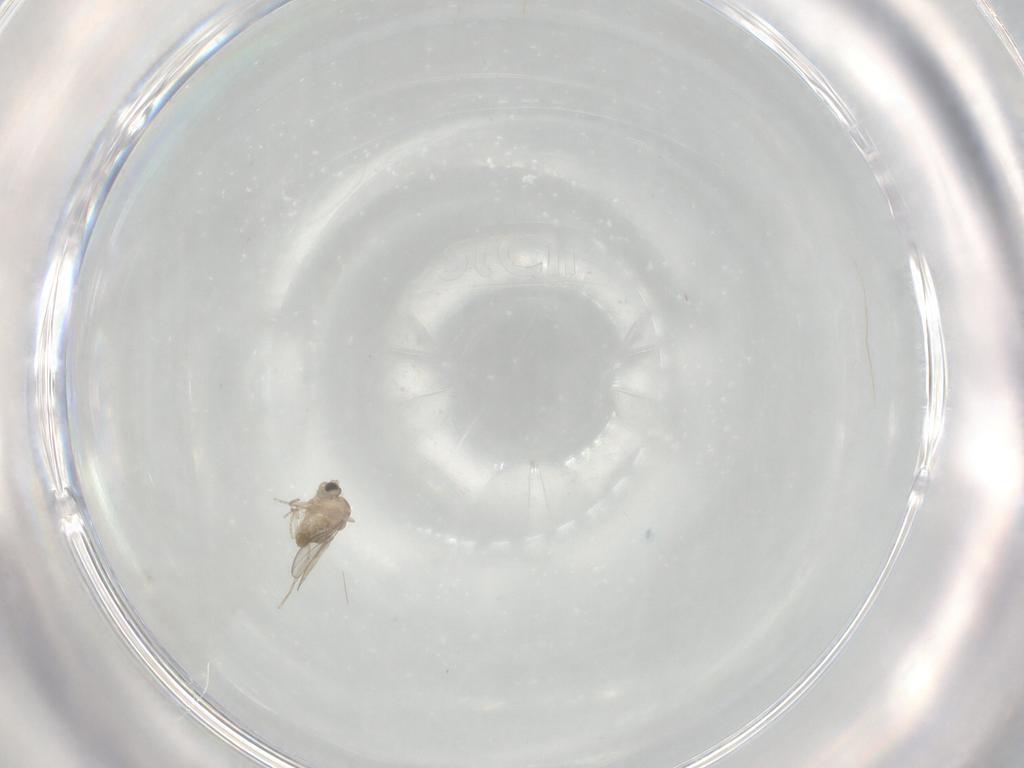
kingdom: Animalia
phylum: Arthropoda
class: Insecta
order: Diptera
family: Cecidomyiidae
